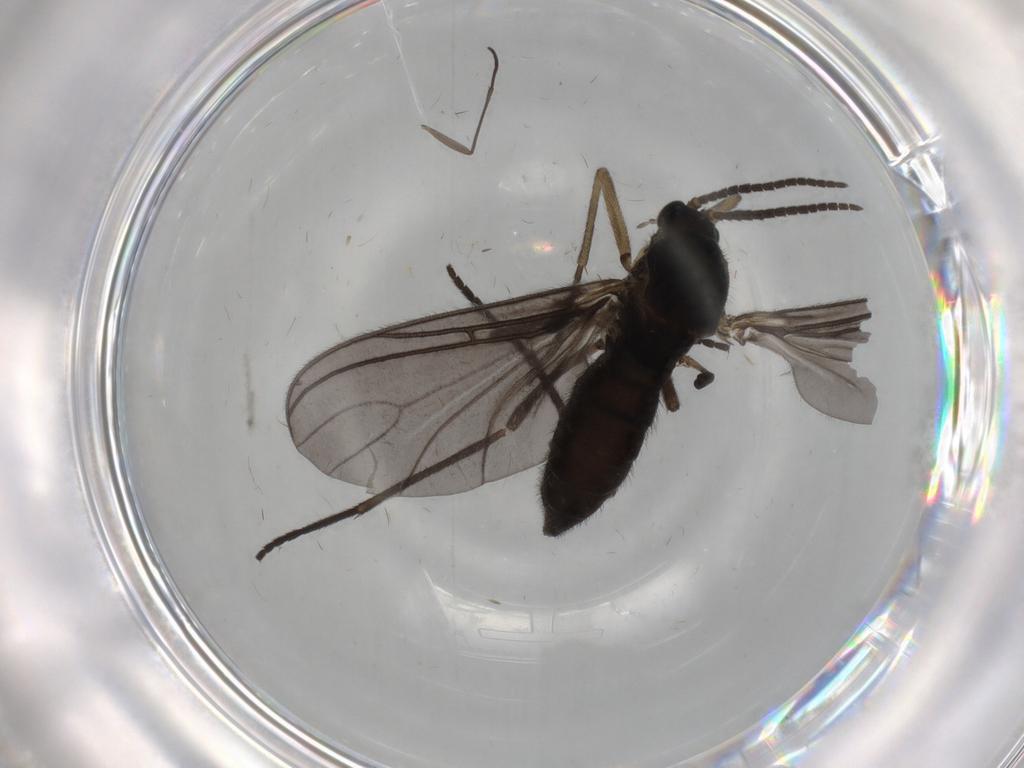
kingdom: Animalia
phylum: Arthropoda
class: Insecta
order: Diptera
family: Sciaridae
